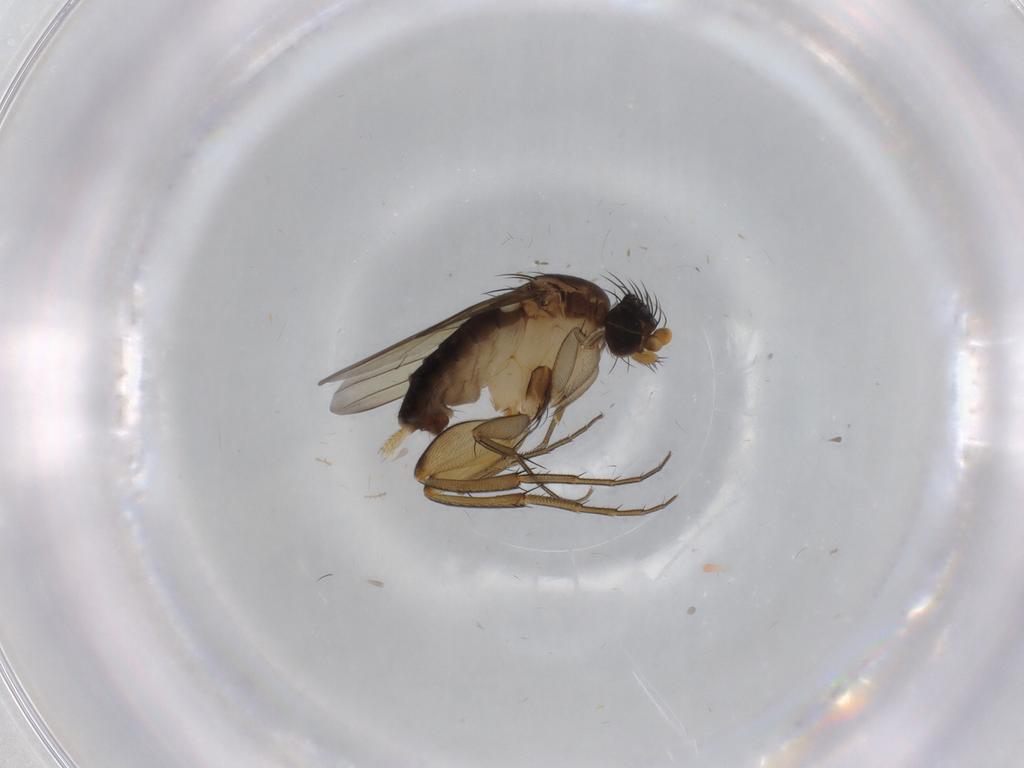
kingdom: Animalia
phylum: Arthropoda
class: Insecta
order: Diptera
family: Phoridae
